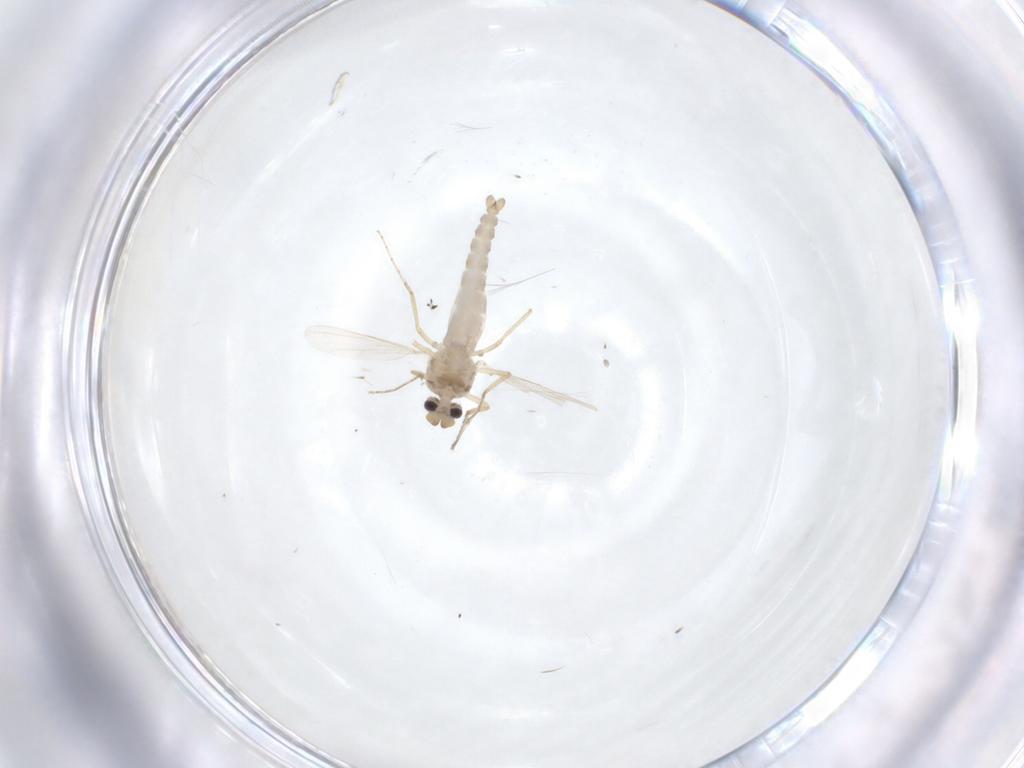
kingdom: Animalia
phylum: Arthropoda
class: Insecta
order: Diptera
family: Ceratopogonidae
